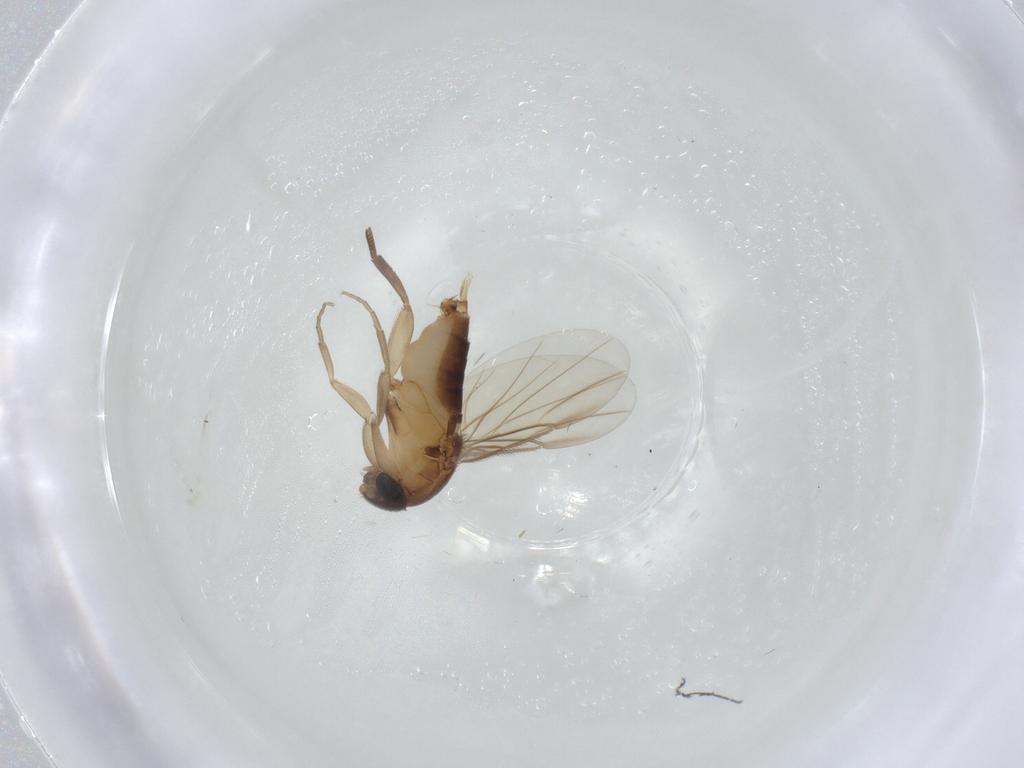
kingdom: Animalia
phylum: Arthropoda
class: Insecta
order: Diptera
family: Phoridae
